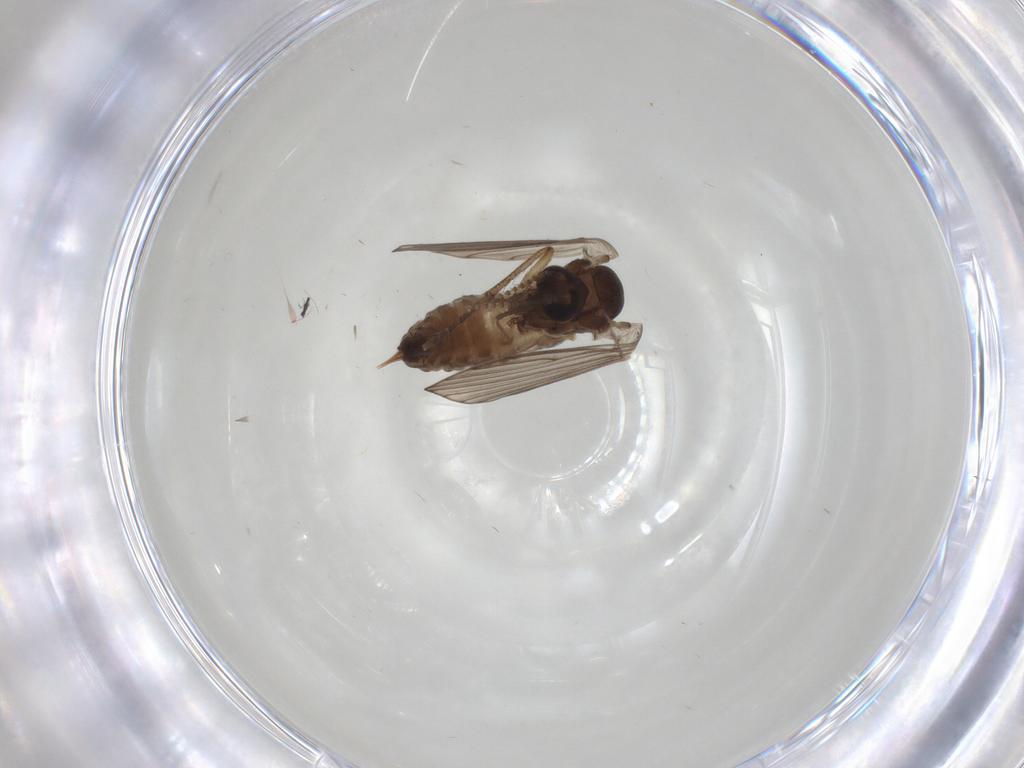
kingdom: Animalia
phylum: Arthropoda
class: Insecta
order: Diptera
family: Psychodidae
